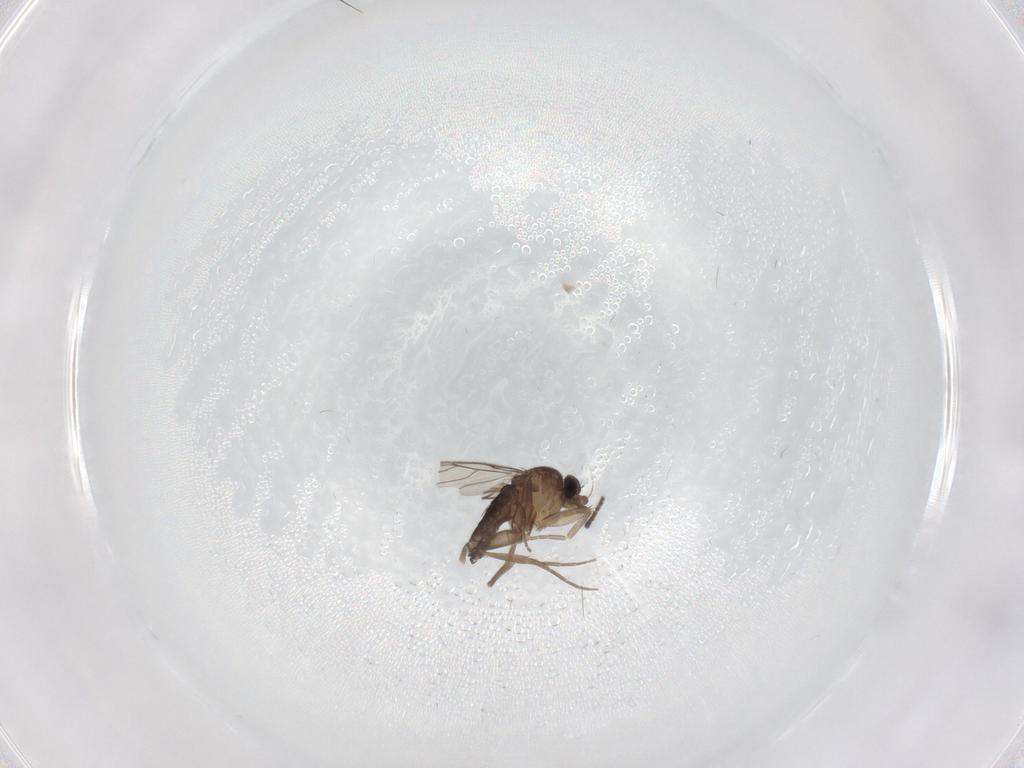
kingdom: Animalia
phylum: Arthropoda
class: Insecta
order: Diptera
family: Phoridae
